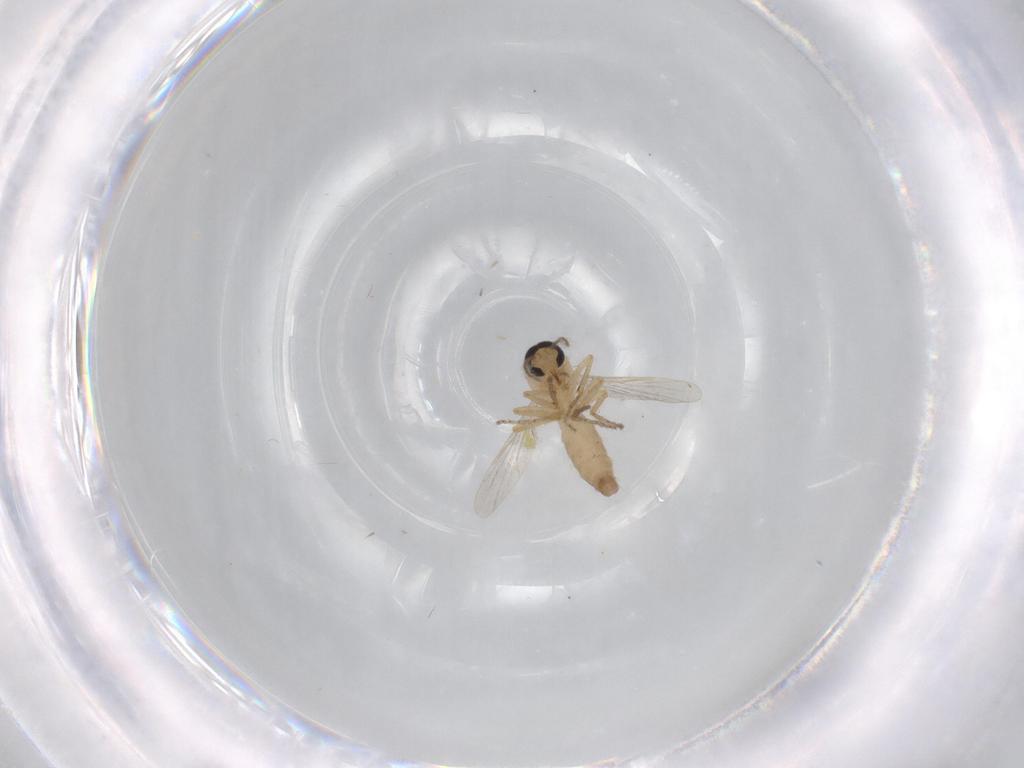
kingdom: Animalia
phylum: Arthropoda
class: Insecta
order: Diptera
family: Ceratopogonidae
